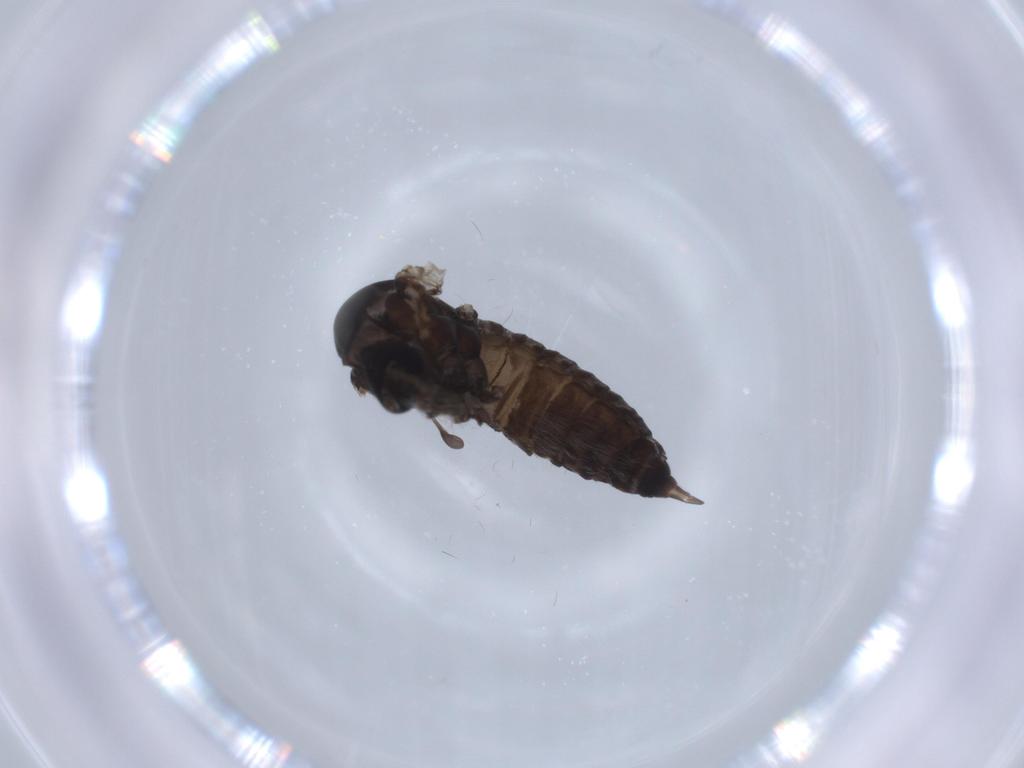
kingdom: Animalia
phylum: Arthropoda
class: Insecta
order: Diptera
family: Sciaridae
